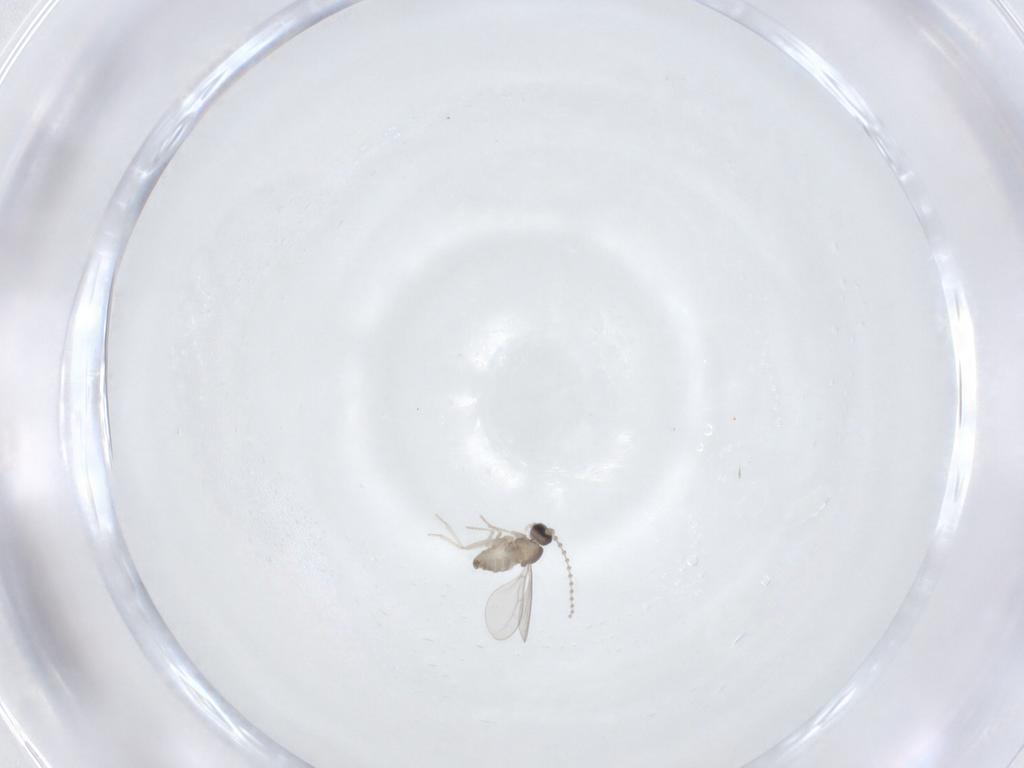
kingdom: Animalia
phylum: Arthropoda
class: Insecta
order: Diptera
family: Cecidomyiidae
